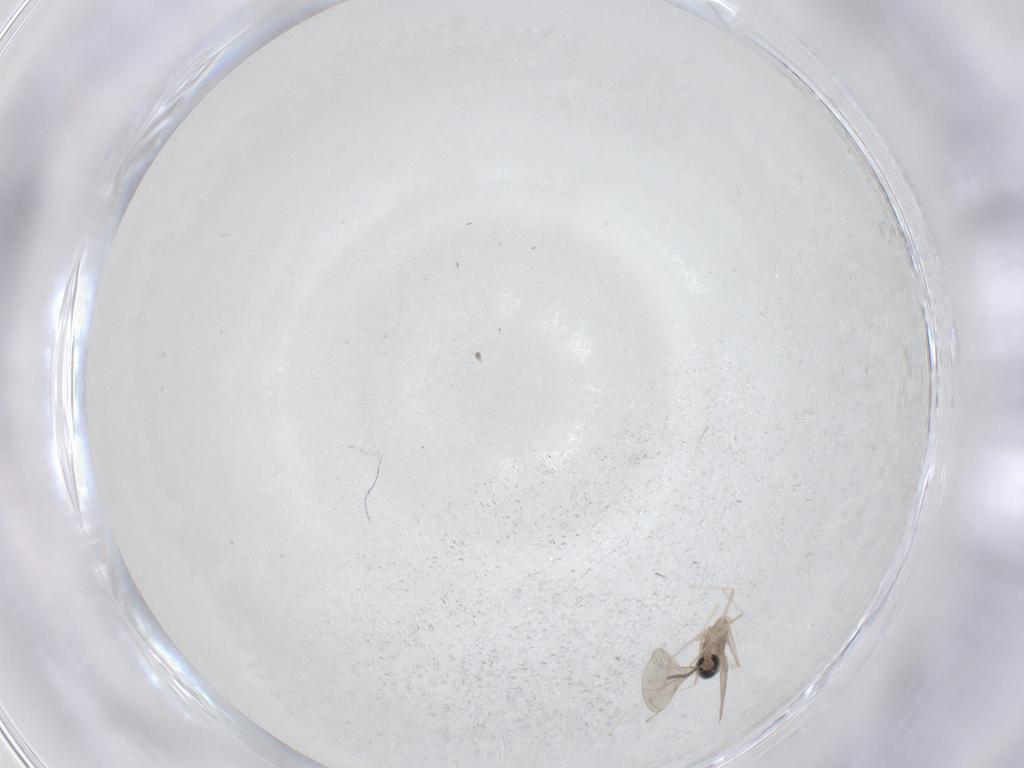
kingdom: Animalia
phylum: Arthropoda
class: Insecta
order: Diptera
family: Cecidomyiidae
